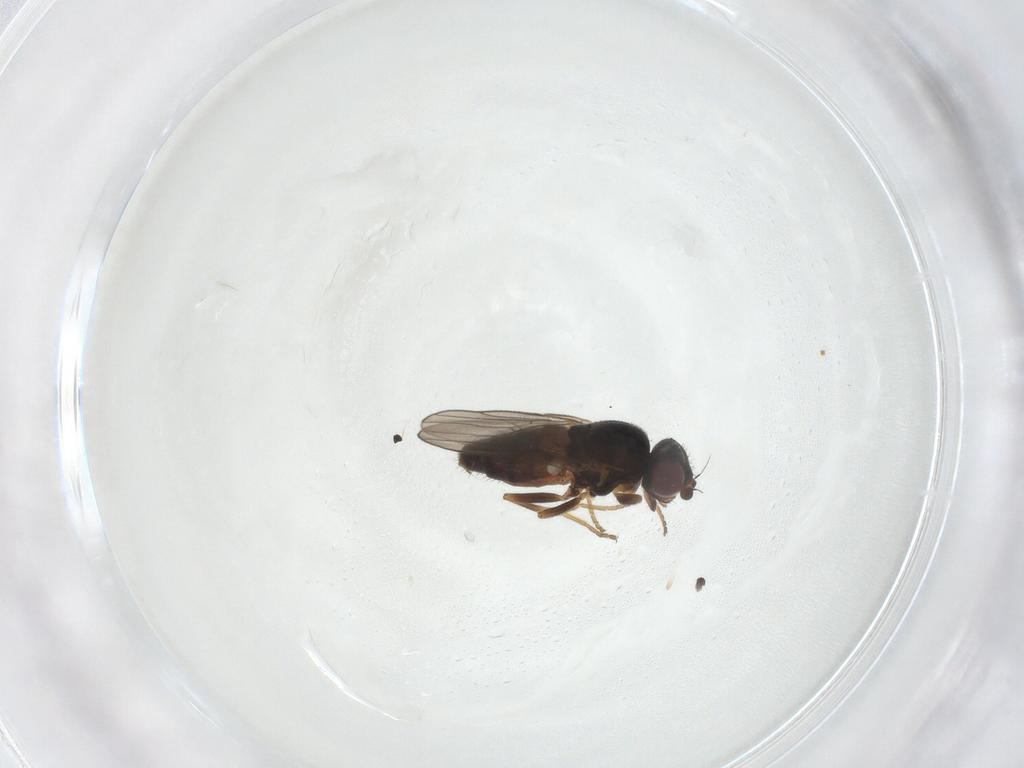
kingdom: Animalia
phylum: Arthropoda
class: Insecta
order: Diptera
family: Chloropidae
